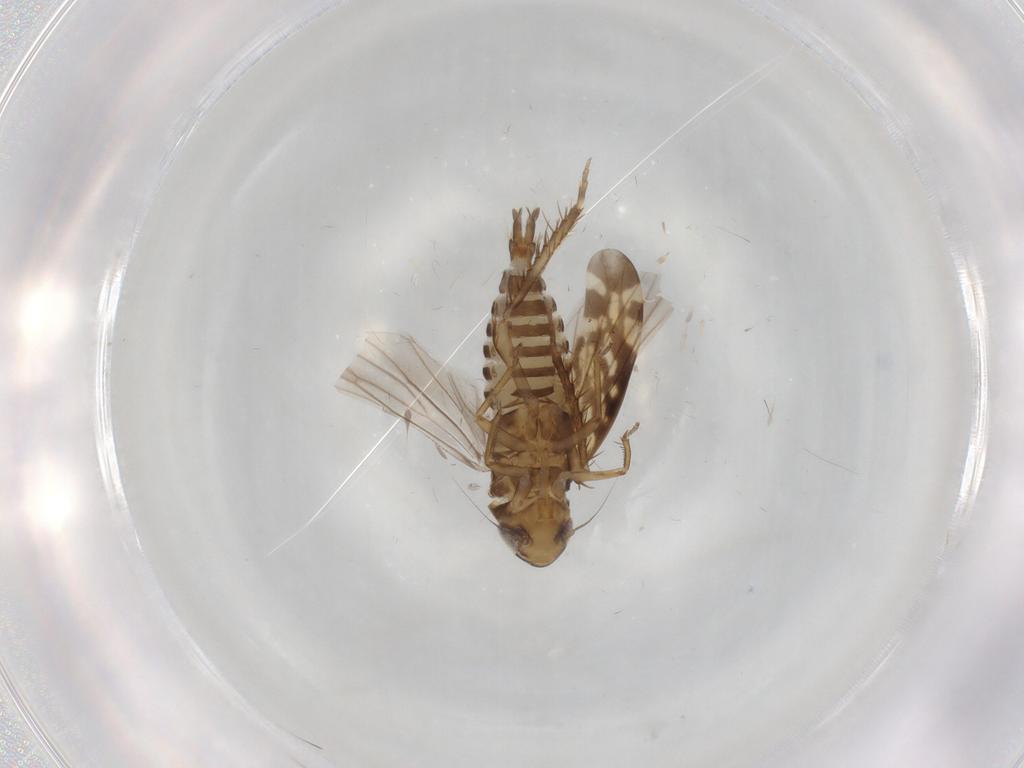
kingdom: Animalia
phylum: Arthropoda
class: Insecta
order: Hemiptera
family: Cicadellidae
